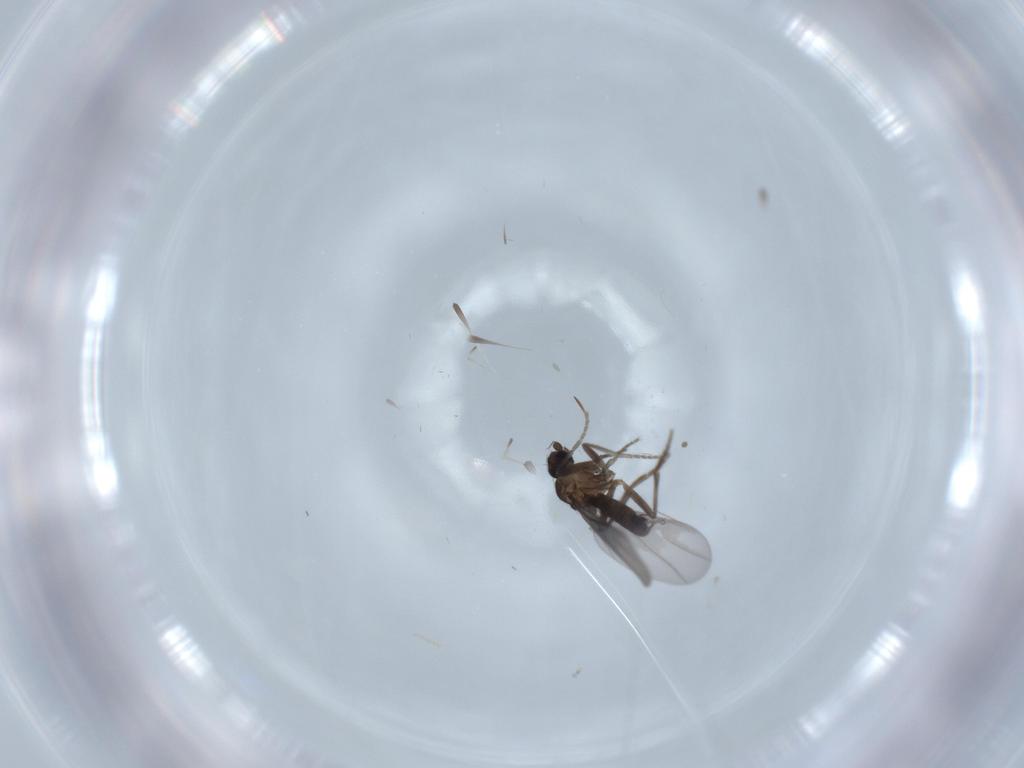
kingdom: Animalia
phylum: Arthropoda
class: Insecta
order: Diptera
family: Phoridae
